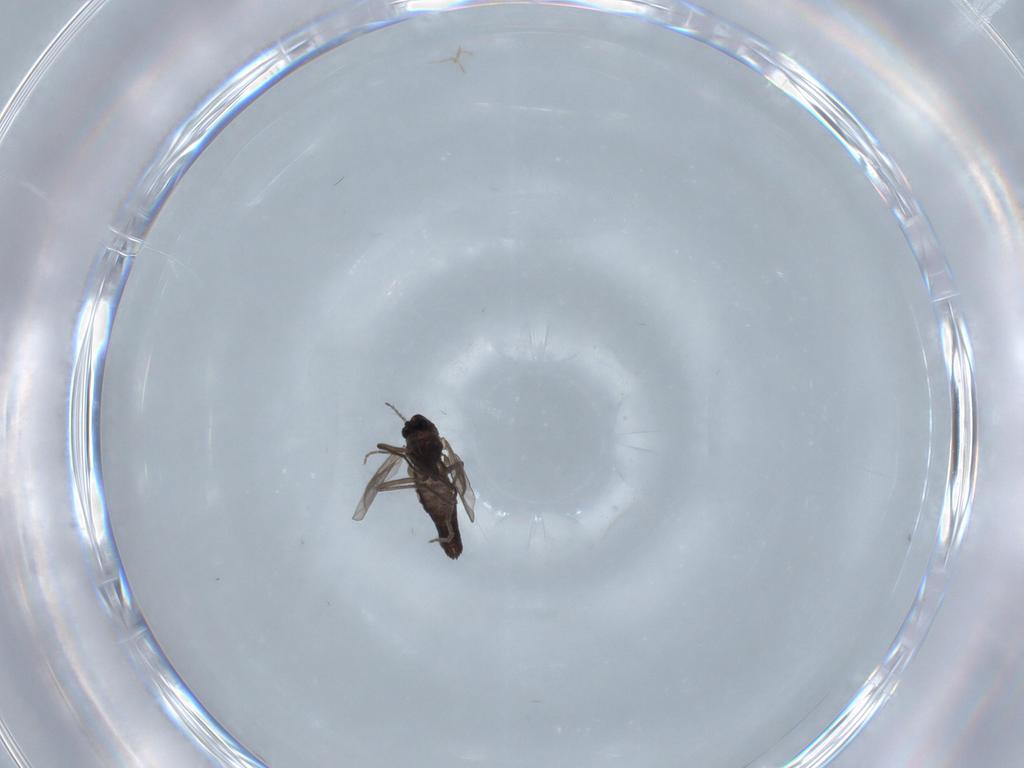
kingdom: Animalia
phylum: Arthropoda
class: Insecta
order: Diptera
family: Chironomidae
